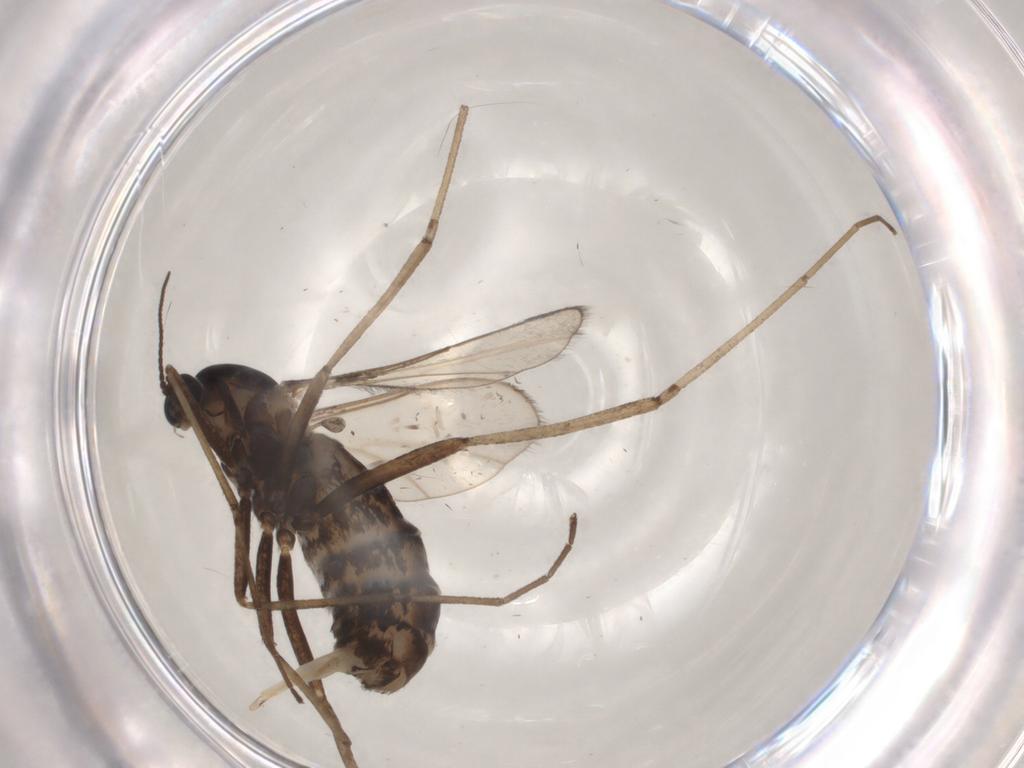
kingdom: Animalia
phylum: Arthropoda
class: Insecta
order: Diptera
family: Cecidomyiidae
